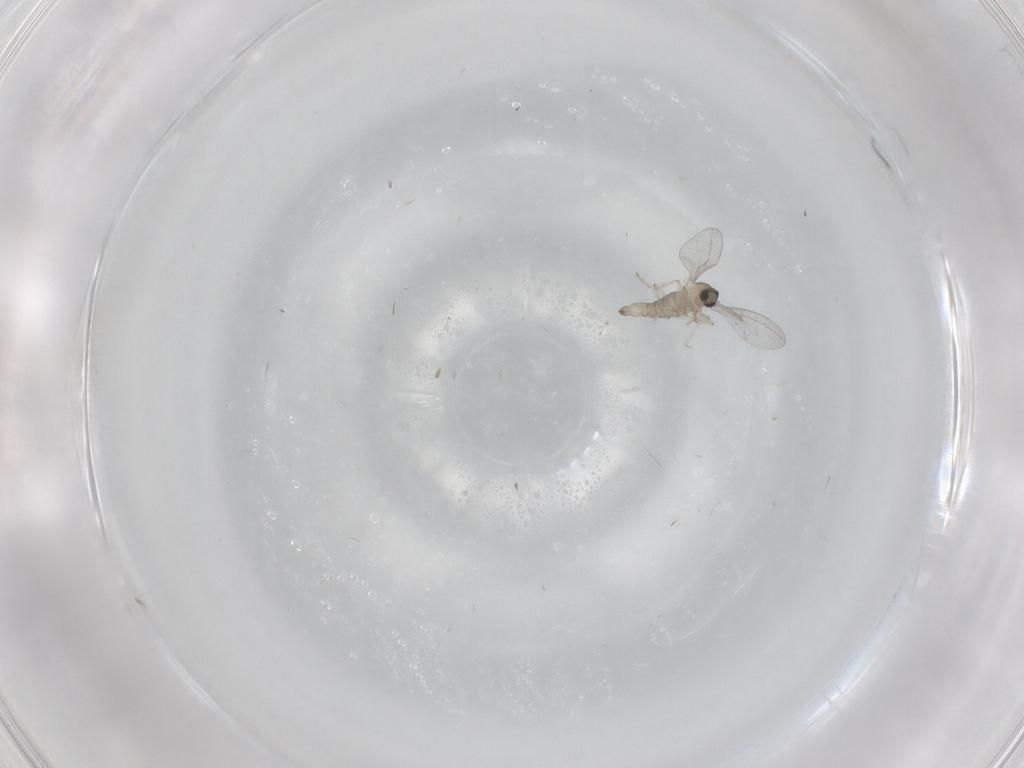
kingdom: Animalia
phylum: Arthropoda
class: Insecta
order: Diptera
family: Cecidomyiidae
